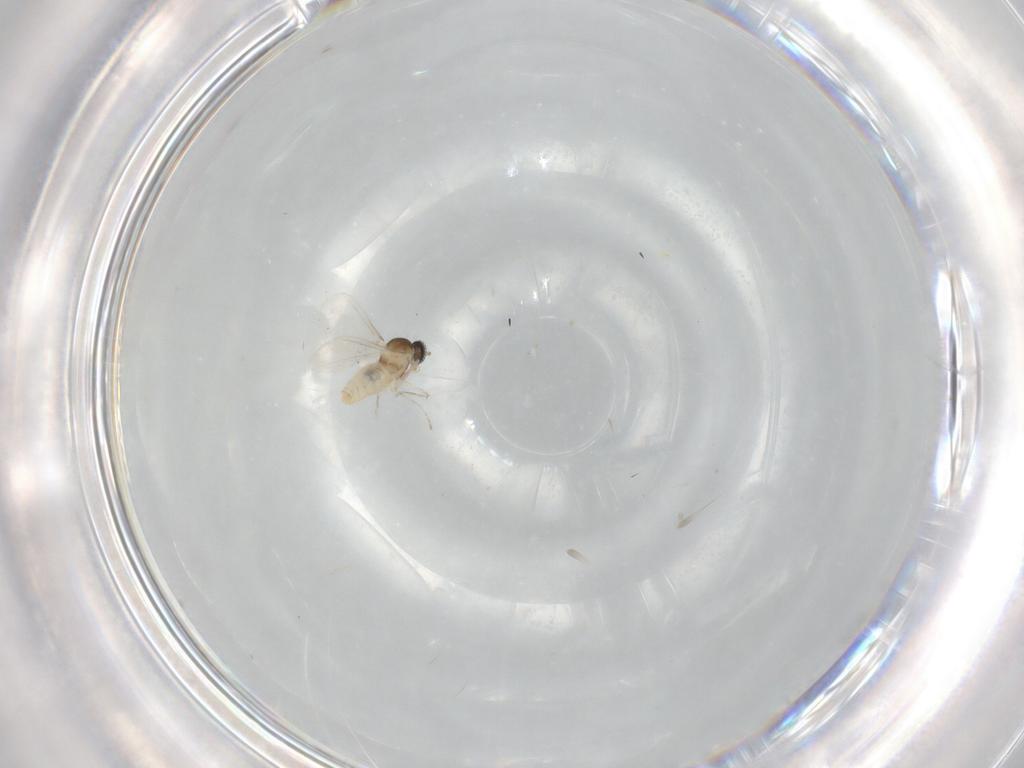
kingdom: Animalia
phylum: Arthropoda
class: Insecta
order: Diptera
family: Cecidomyiidae
